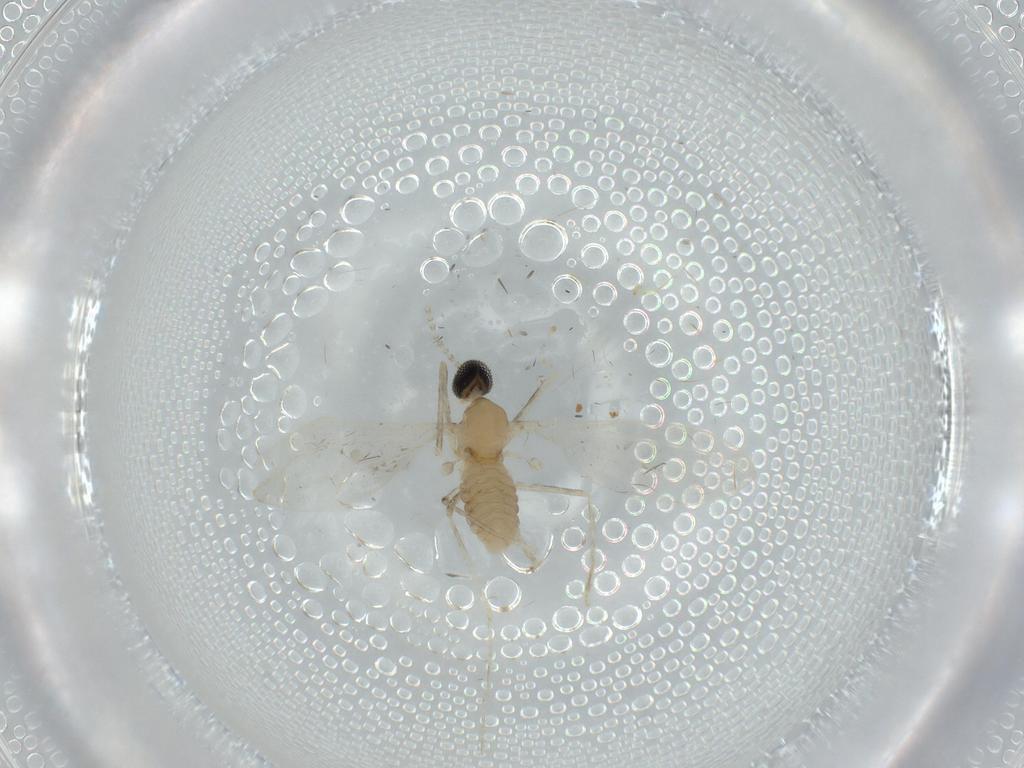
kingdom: Animalia
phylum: Arthropoda
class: Insecta
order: Diptera
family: Cecidomyiidae
